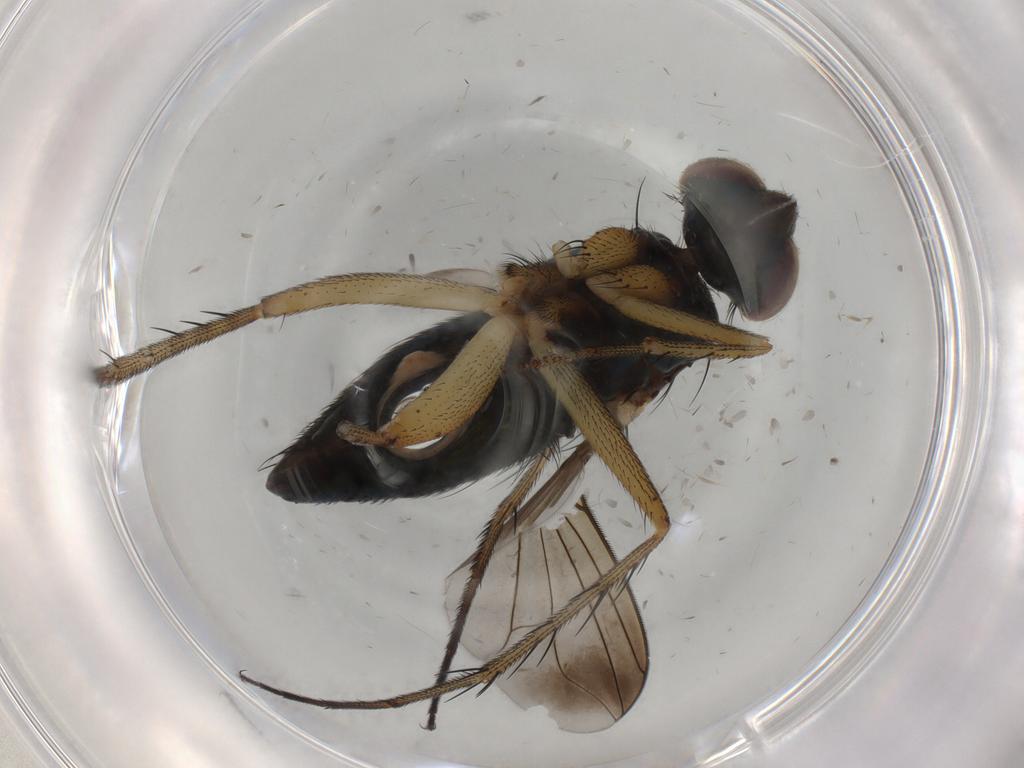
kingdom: Animalia
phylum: Arthropoda
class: Insecta
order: Diptera
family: Dolichopodidae
